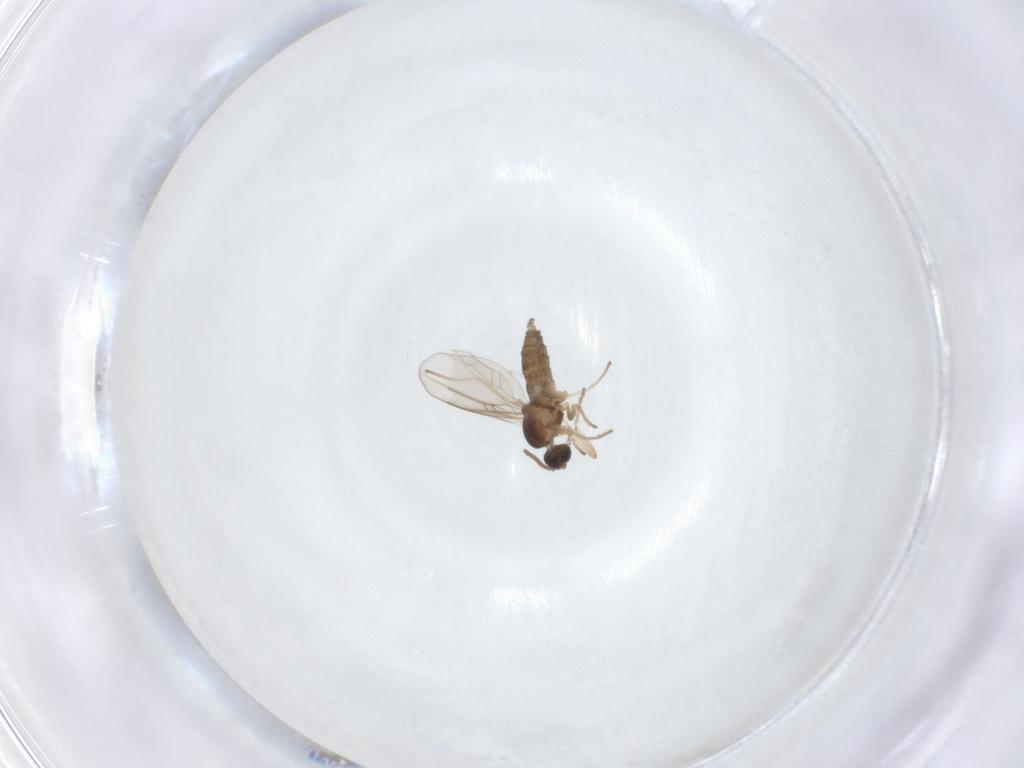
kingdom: Animalia
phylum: Arthropoda
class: Insecta
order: Diptera
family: Cecidomyiidae
